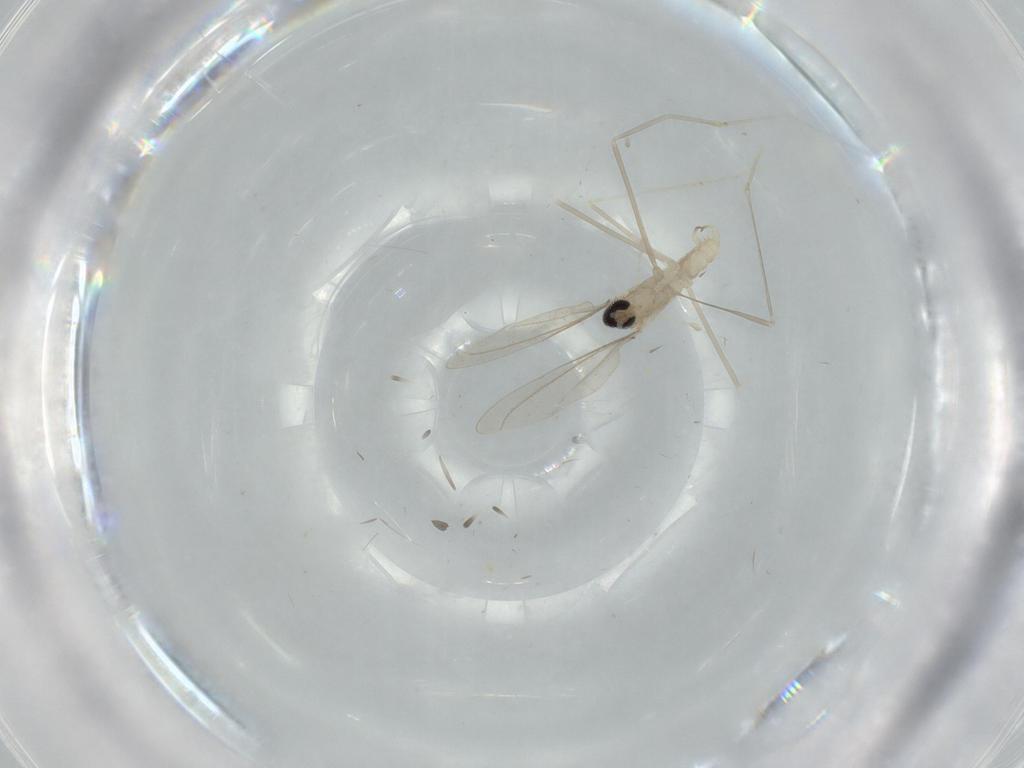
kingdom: Animalia
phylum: Arthropoda
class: Insecta
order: Diptera
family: Cecidomyiidae
